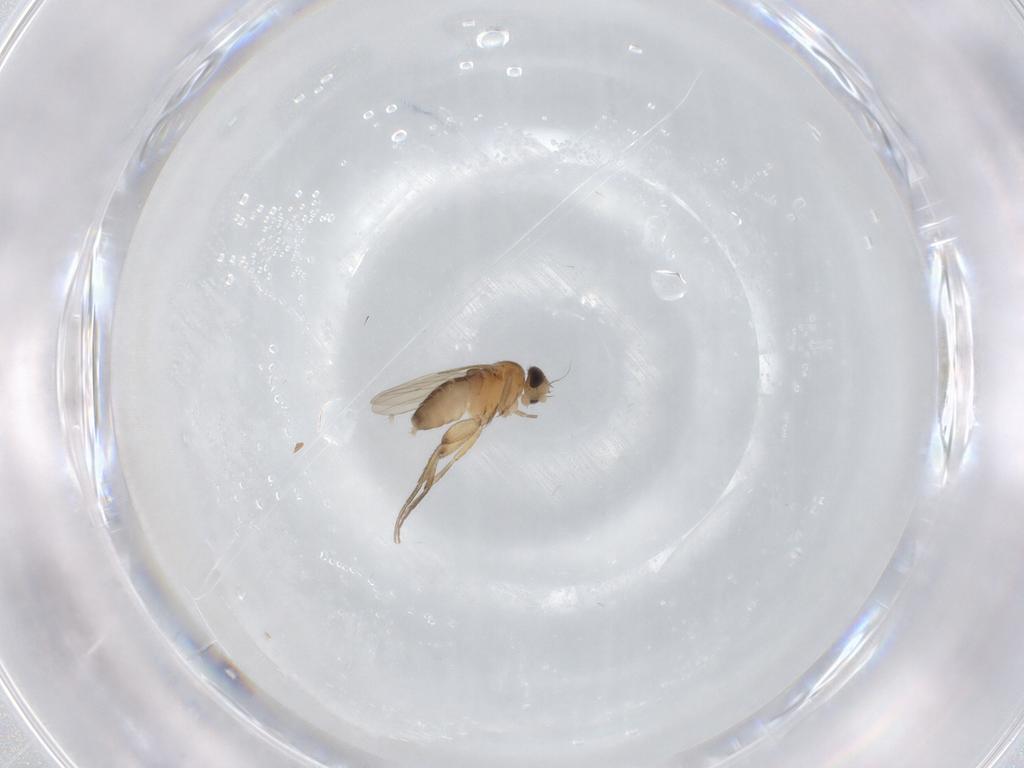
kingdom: Animalia
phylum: Arthropoda
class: Insecta
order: Diptera
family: Phoridae
